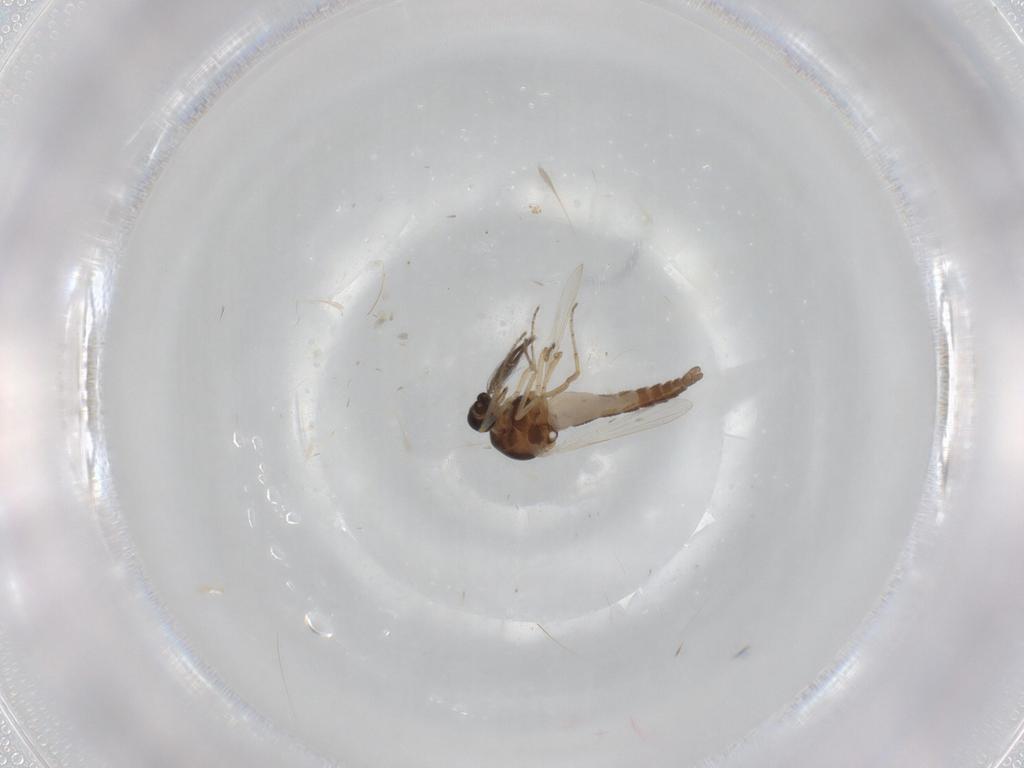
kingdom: Animalia
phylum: Arthropoda
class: Insecta
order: Diptera
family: Ceratopogonidae
